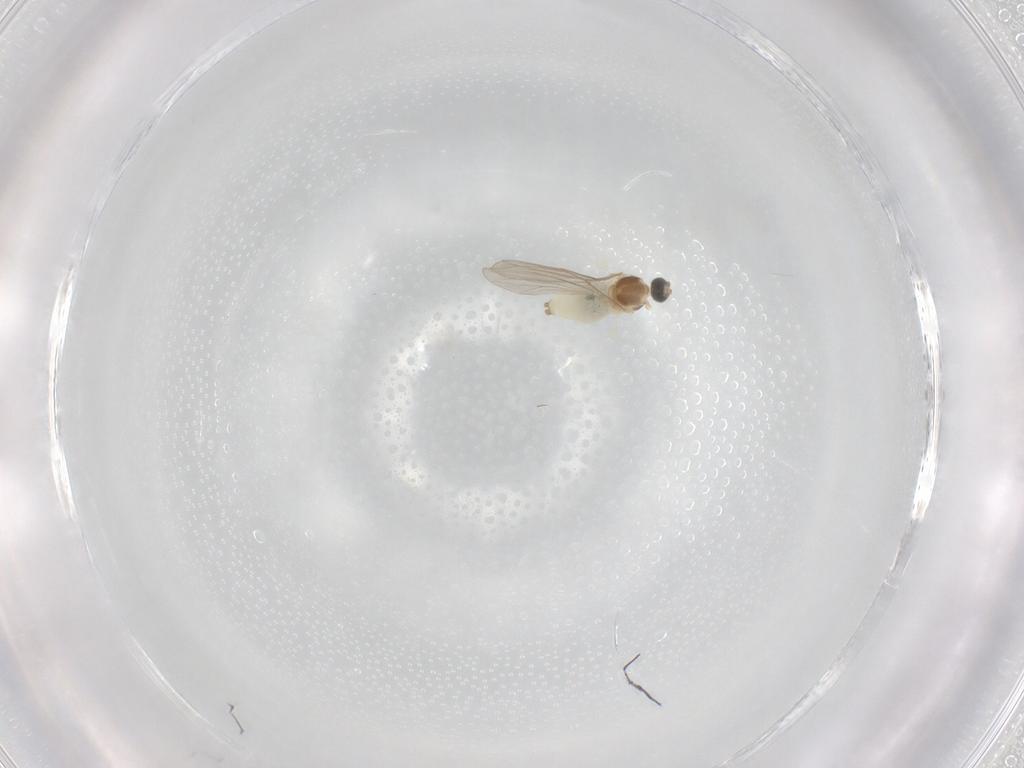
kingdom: Animalia
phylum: Arthropoda
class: Insecta
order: Diptera
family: Cecidomyiidae
